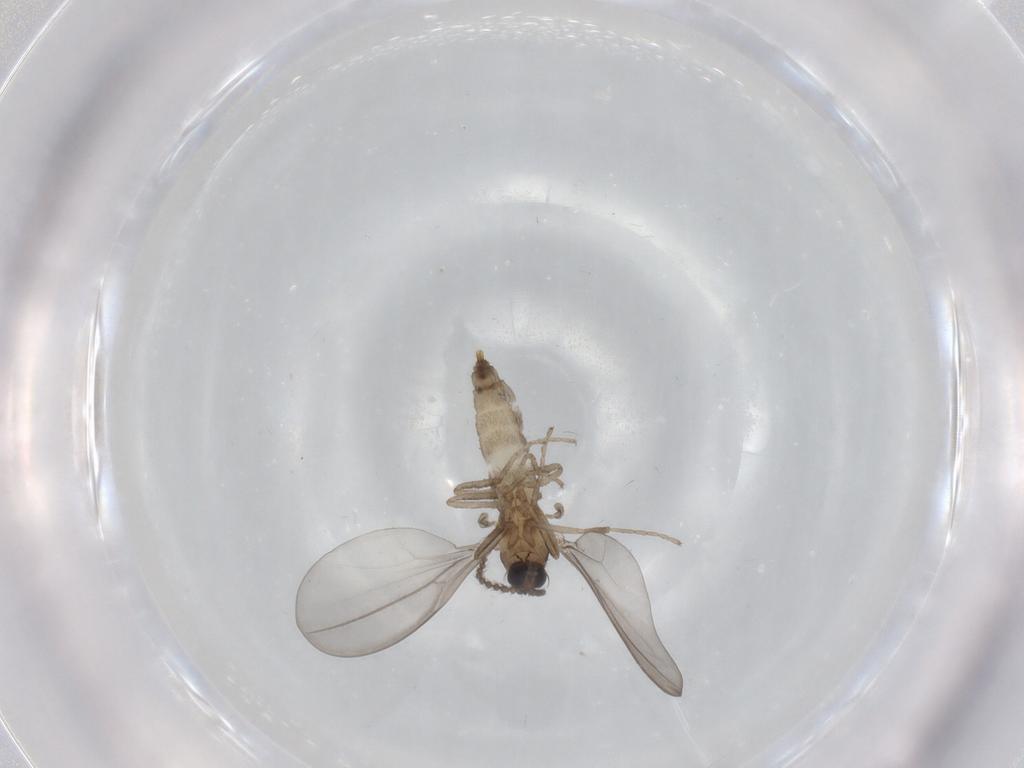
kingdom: Animalia
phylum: Arthropoda
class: Insecta
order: Diptera
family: Cecidomyiidae
